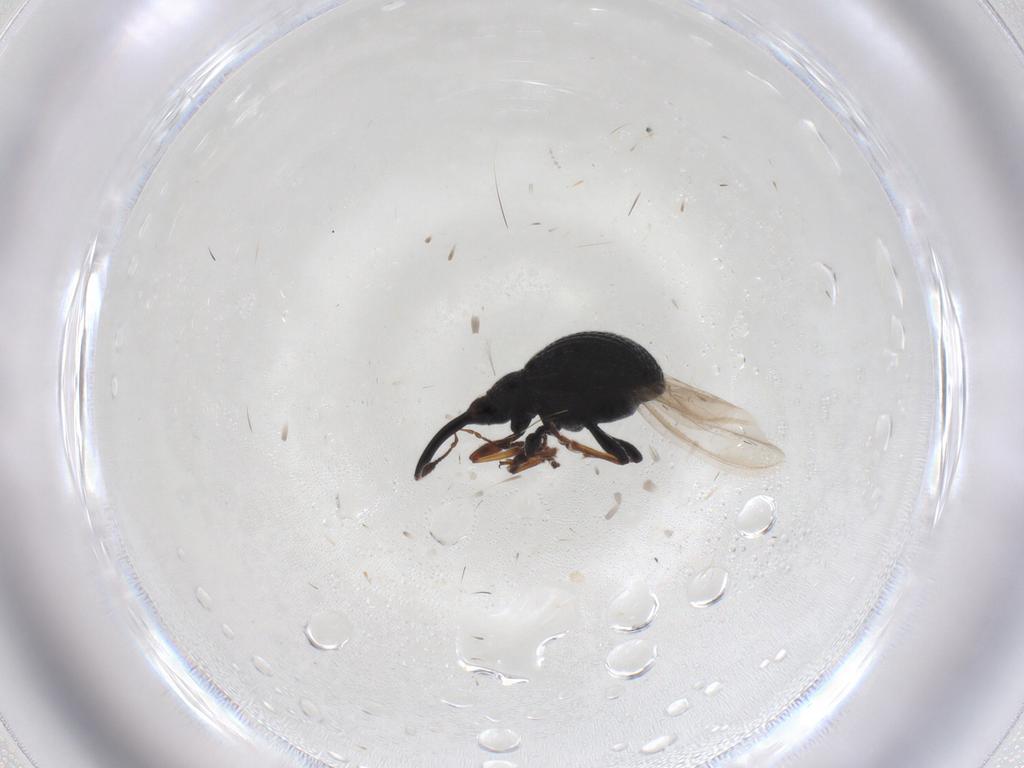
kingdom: Animalia
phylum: Arthropoda
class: Insecta
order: Coleoptera
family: Brentidae
